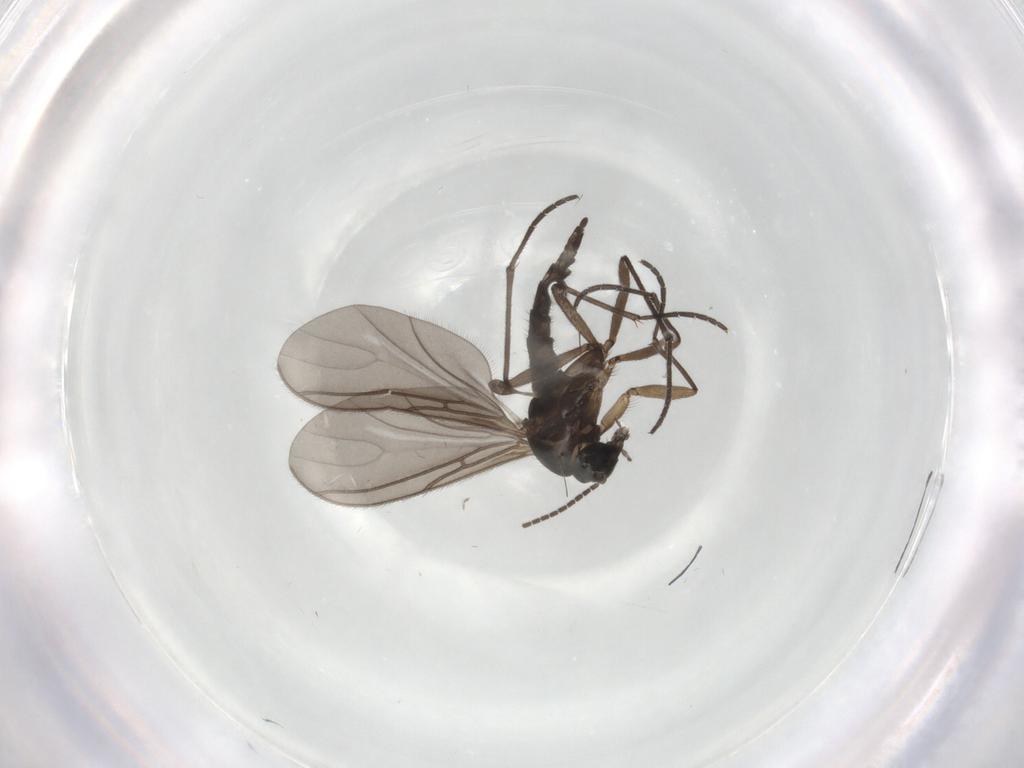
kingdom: Animalia
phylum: Arthropoda
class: Insecta
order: Diptera
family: Sciaridae
